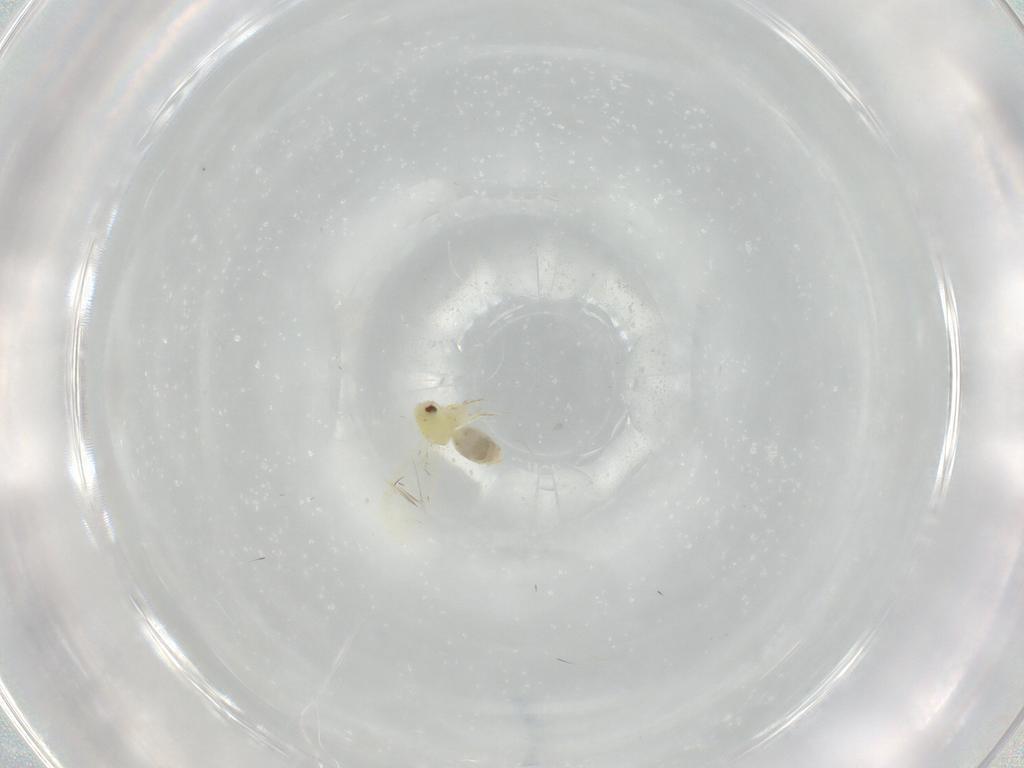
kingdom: Animalia
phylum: Arthropoda
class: Insecta
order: Hemiptera
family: Aleyrodidae
